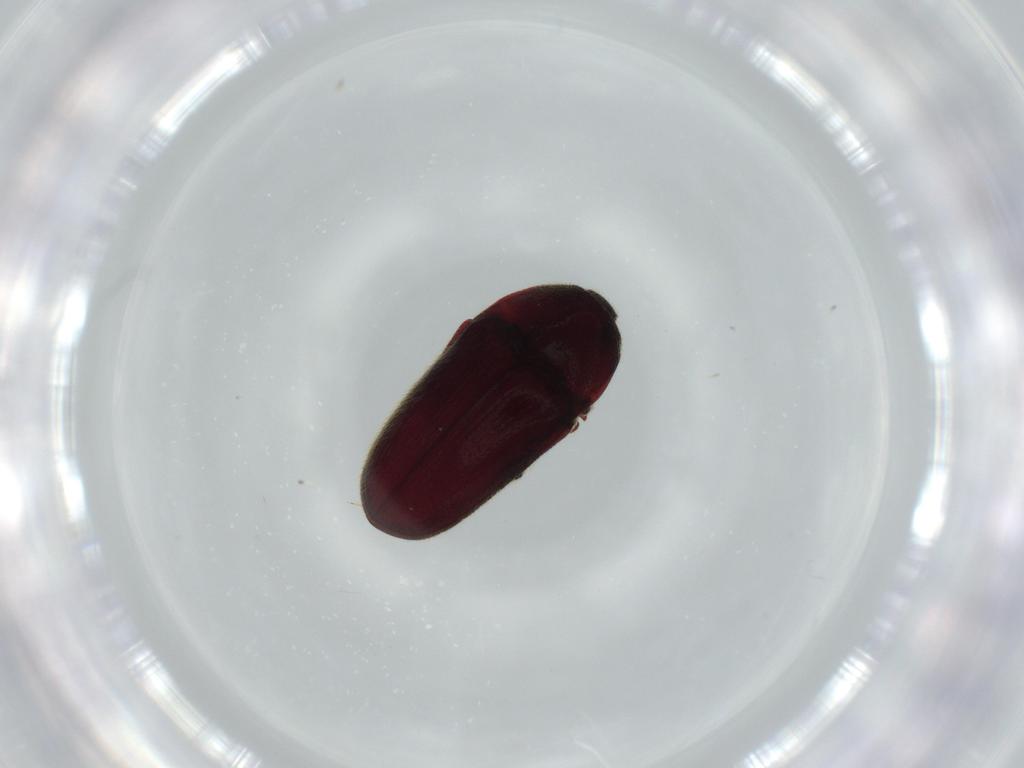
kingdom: Animalia
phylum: Arthropoda
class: Insecta
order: Coleoptera
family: Throscidae
